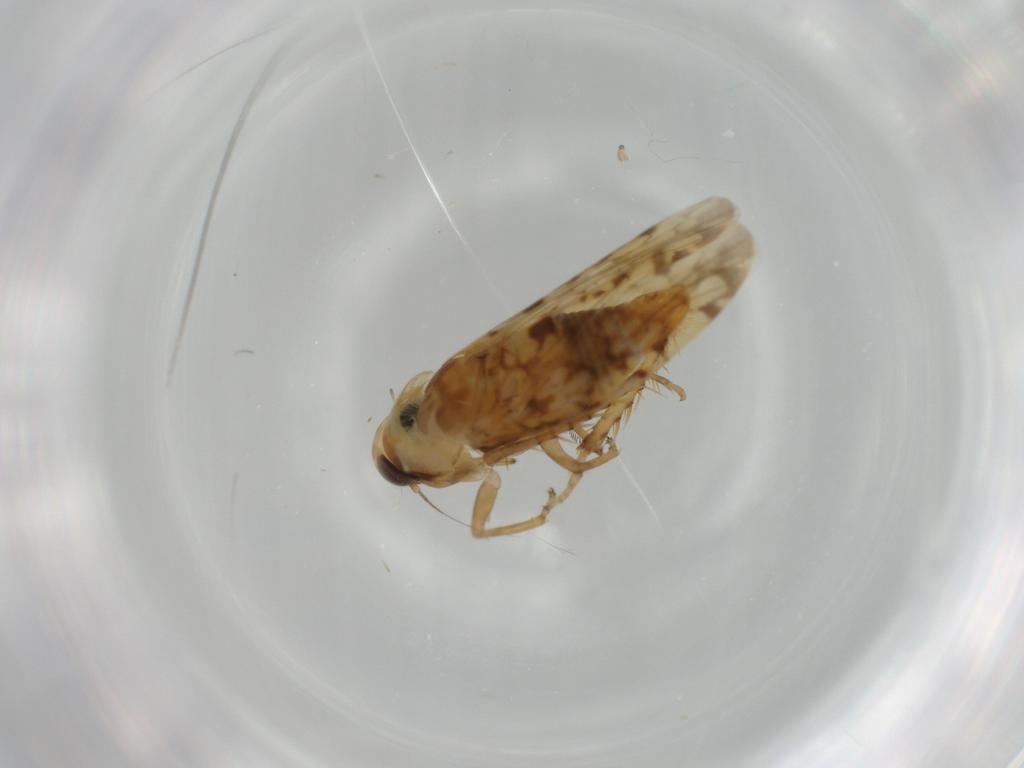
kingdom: Animalia
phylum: Arthropoda
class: Insecta
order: Hemiptera
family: Cicadellidae
